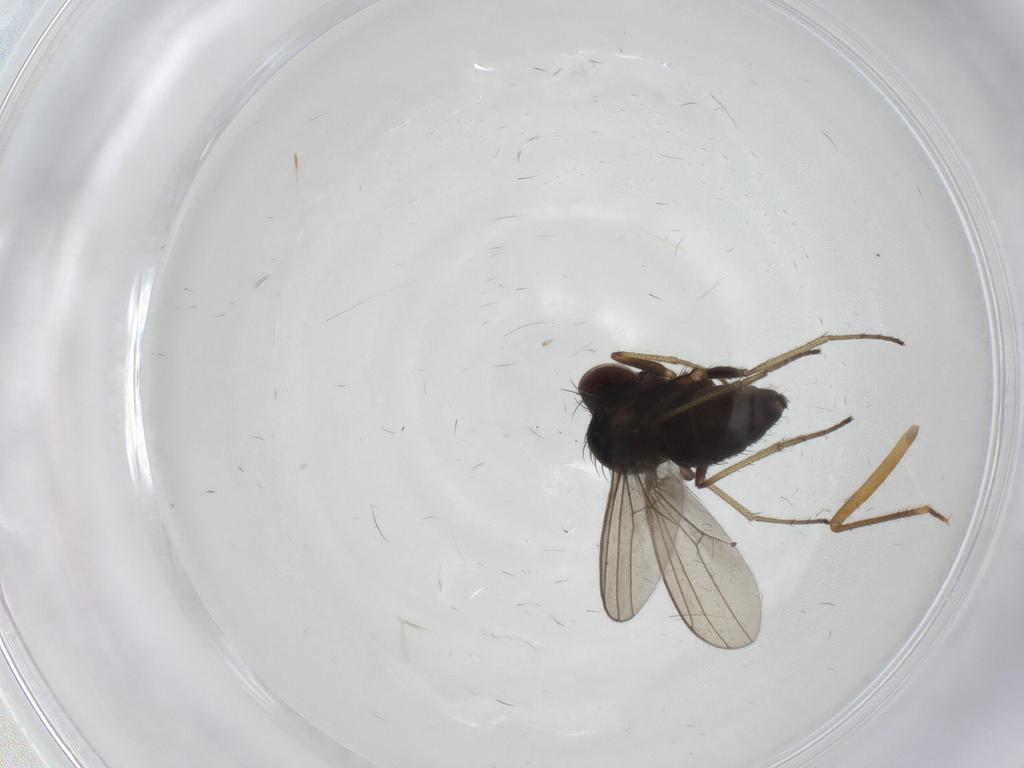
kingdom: Animalia
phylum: Arthropoda
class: Insecta
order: Diptera
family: Dolichopodidae
